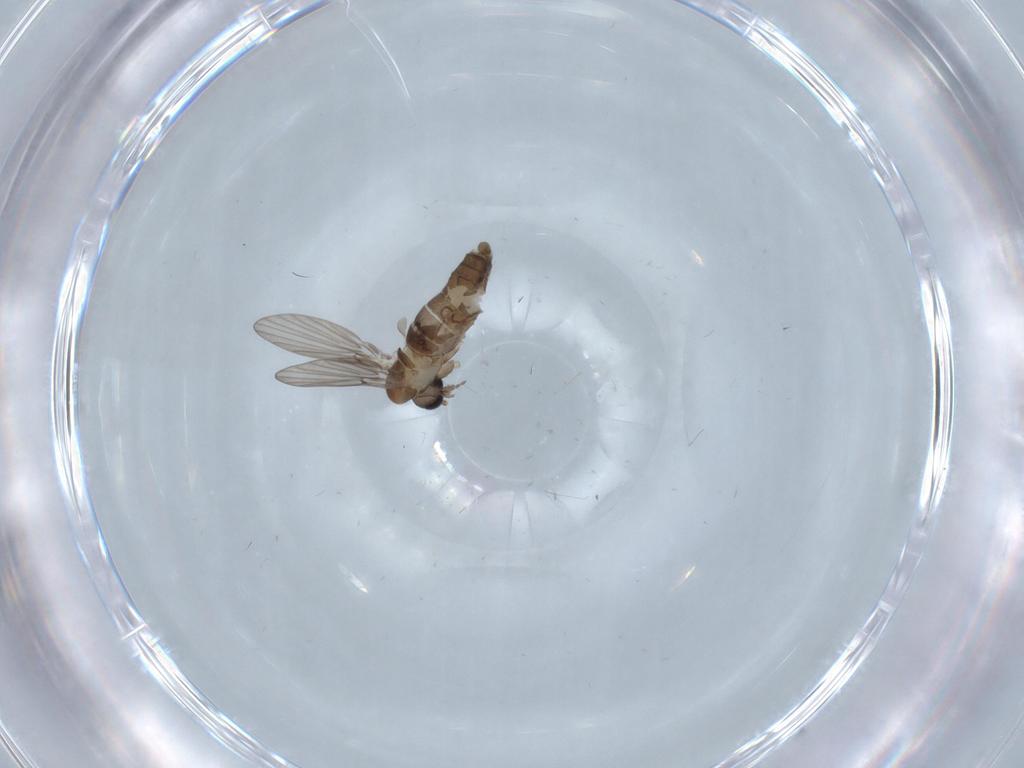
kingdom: Animalia
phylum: Arthropoda
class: Insecta
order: Diptera
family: Psychodidae
